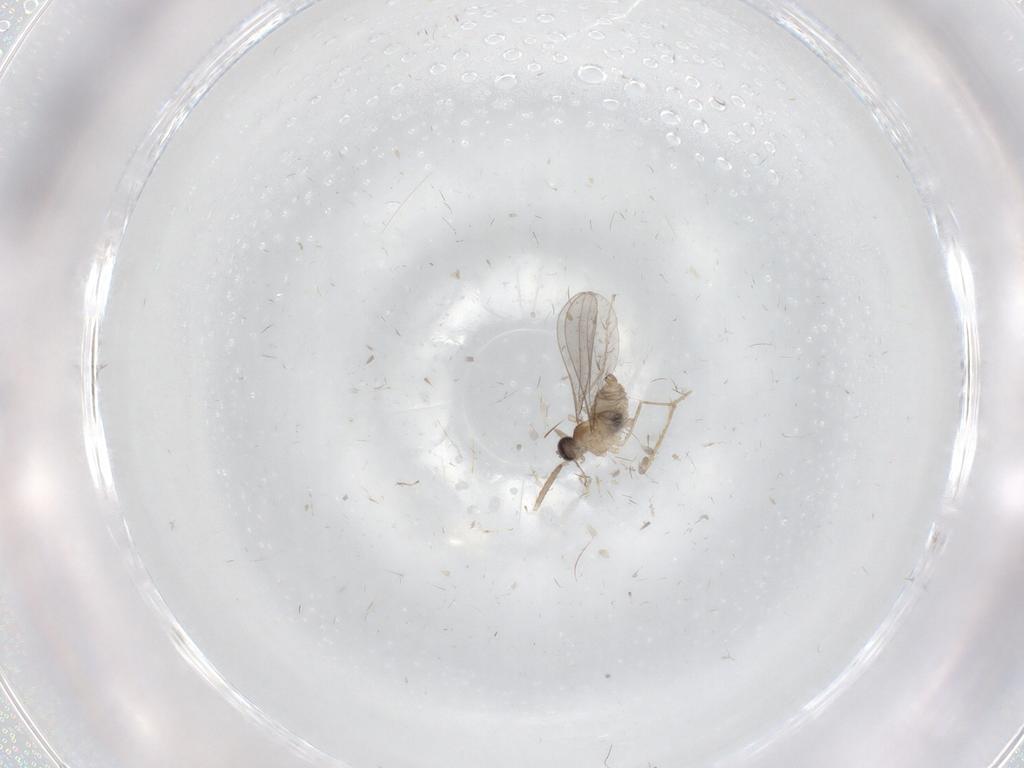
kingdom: Animalia
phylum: Arthropoda
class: Insecta
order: Diptera
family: Cecidomyiidae
